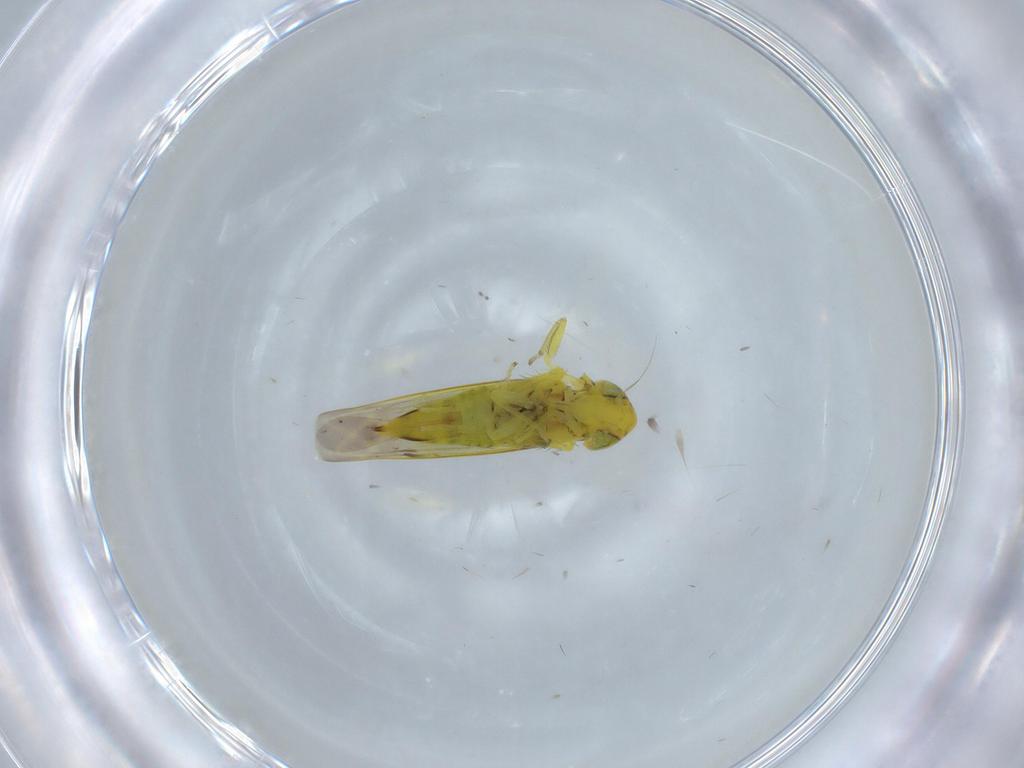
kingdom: Animalia
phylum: Arthropoda
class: Insecta
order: Hemiptera
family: Cicadellidae
